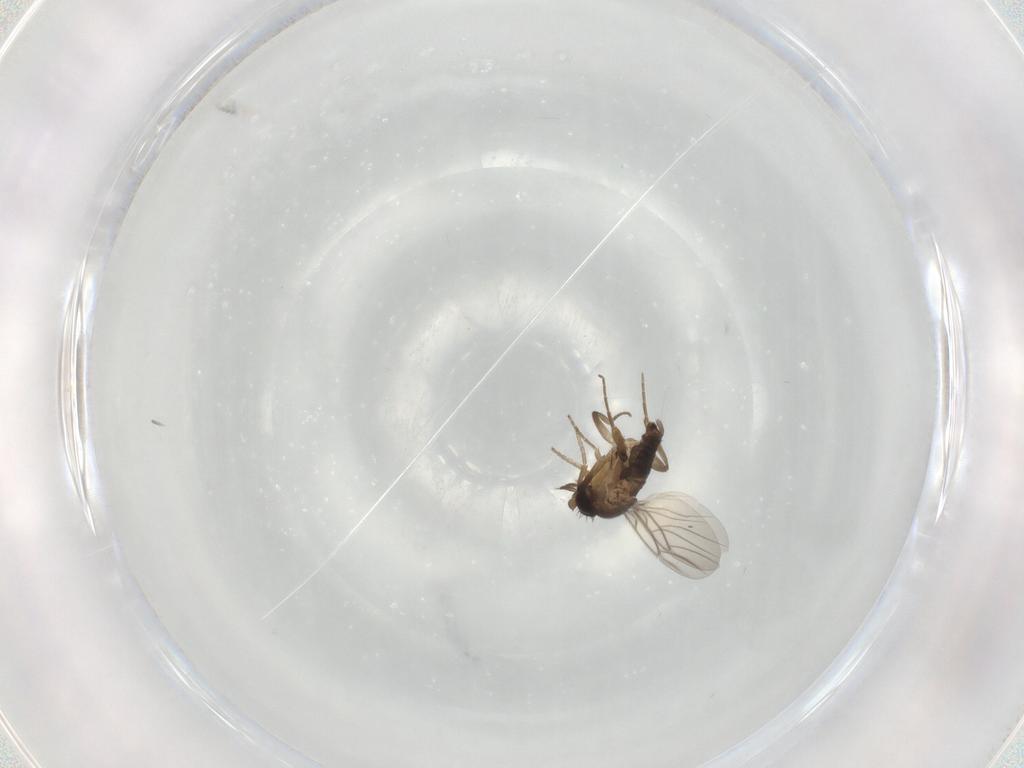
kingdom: Animalia
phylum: Arthropoda
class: Insecta
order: Diptera
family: Phoridae
